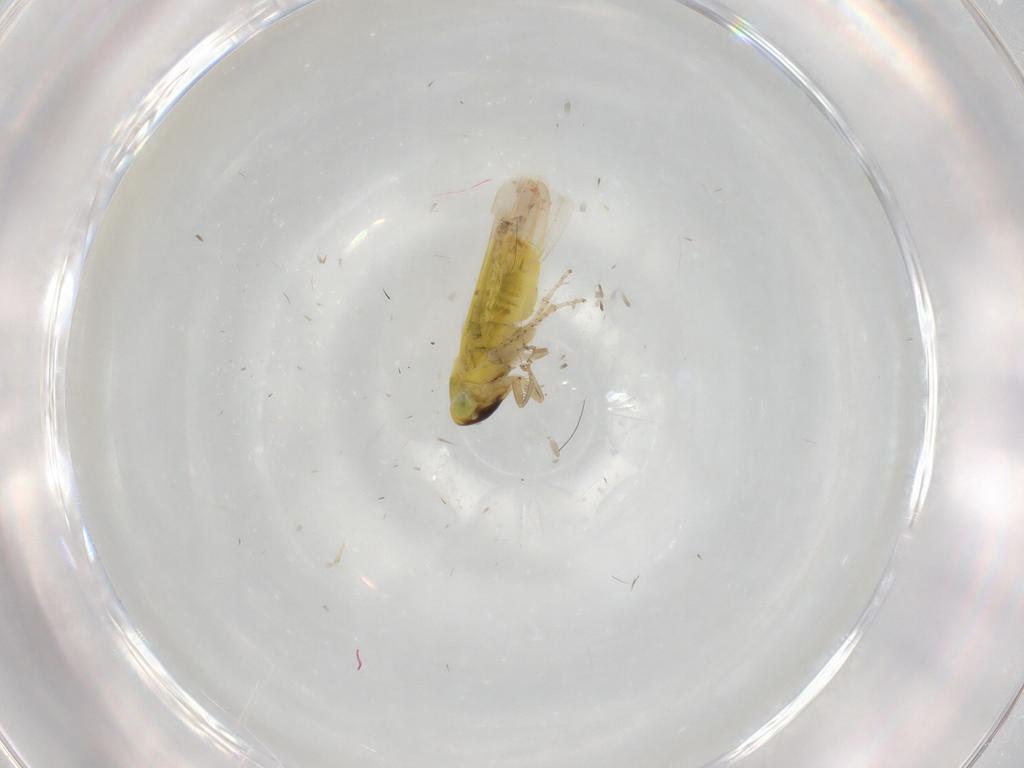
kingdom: Animalia
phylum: Arthropoda
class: Insecta
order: Hemiptera
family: Cicadellidae
